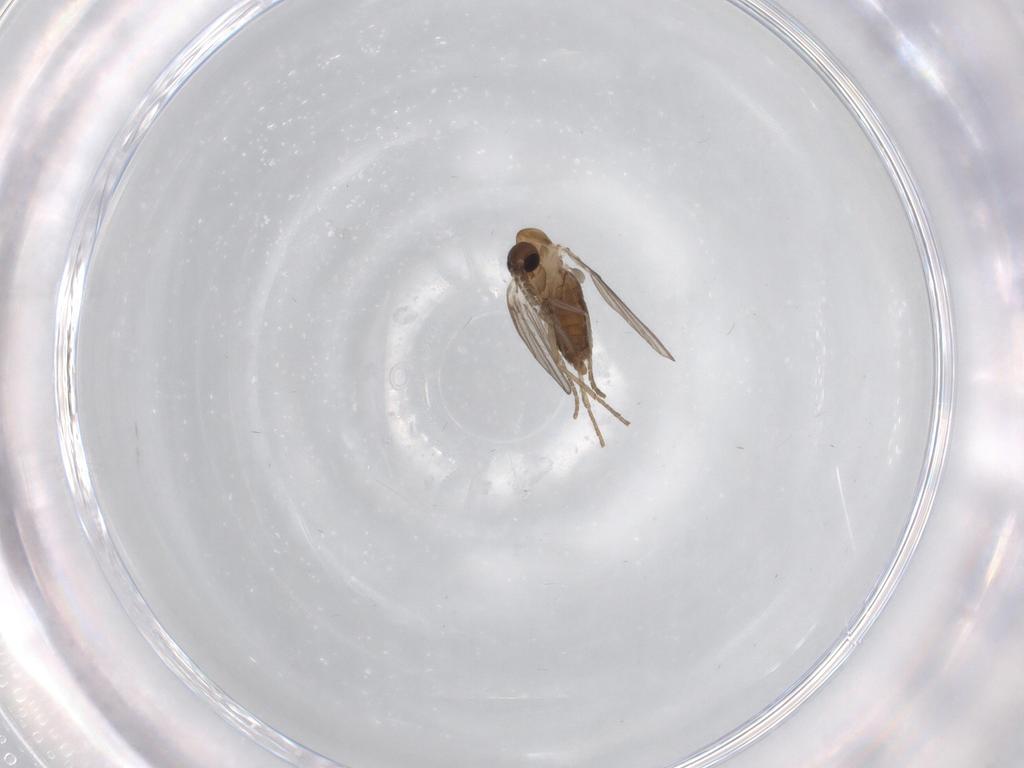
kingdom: Animalia
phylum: Arthropoda
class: Insecta
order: Diptera
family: Psychodidae
